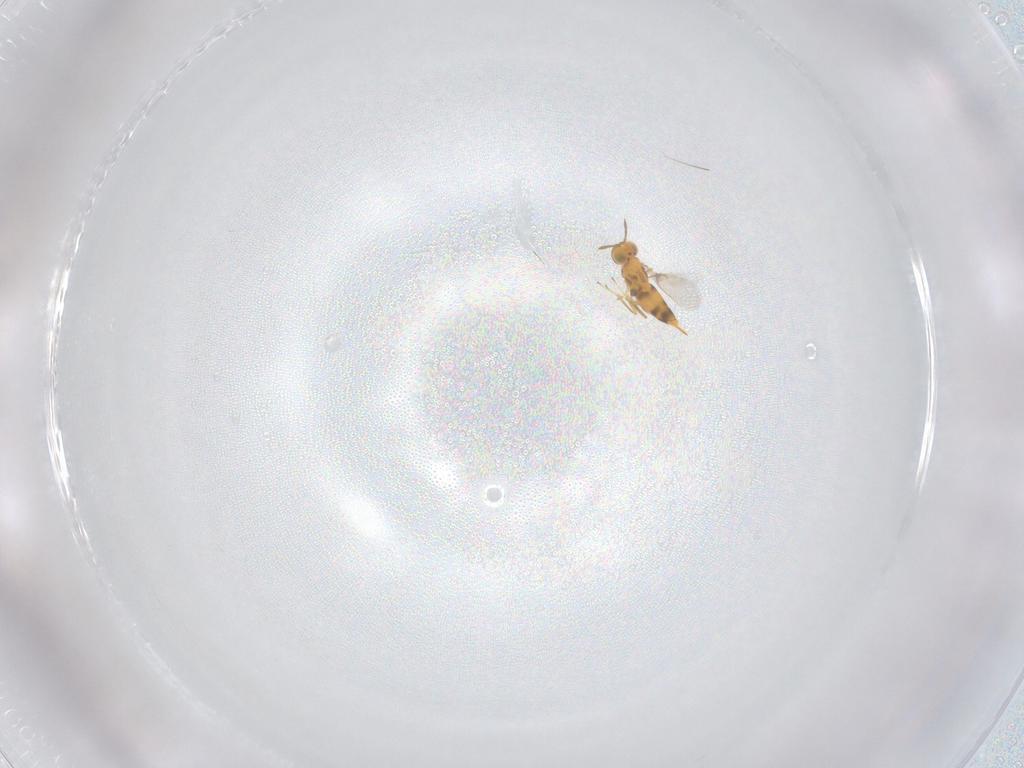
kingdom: Animalia
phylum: Arthropoda
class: Insecta
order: Hymenoptera
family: Aphelinidae
